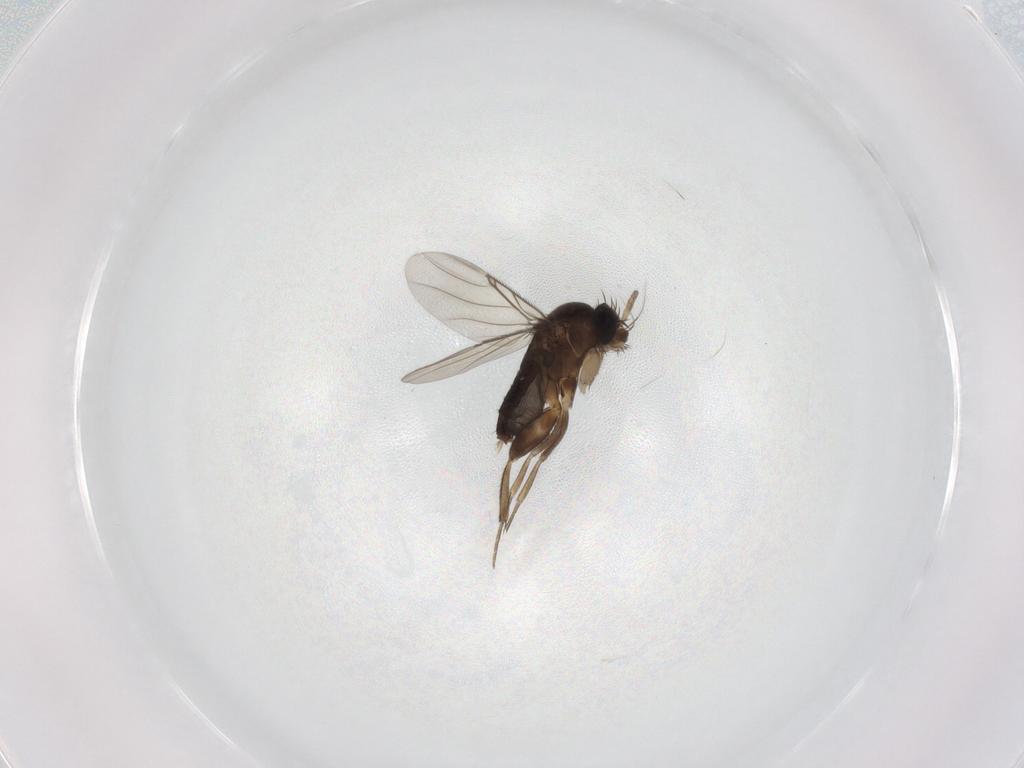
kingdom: Animalia
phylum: Arthropoda
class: Insecta
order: Diptera
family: Phoridae
